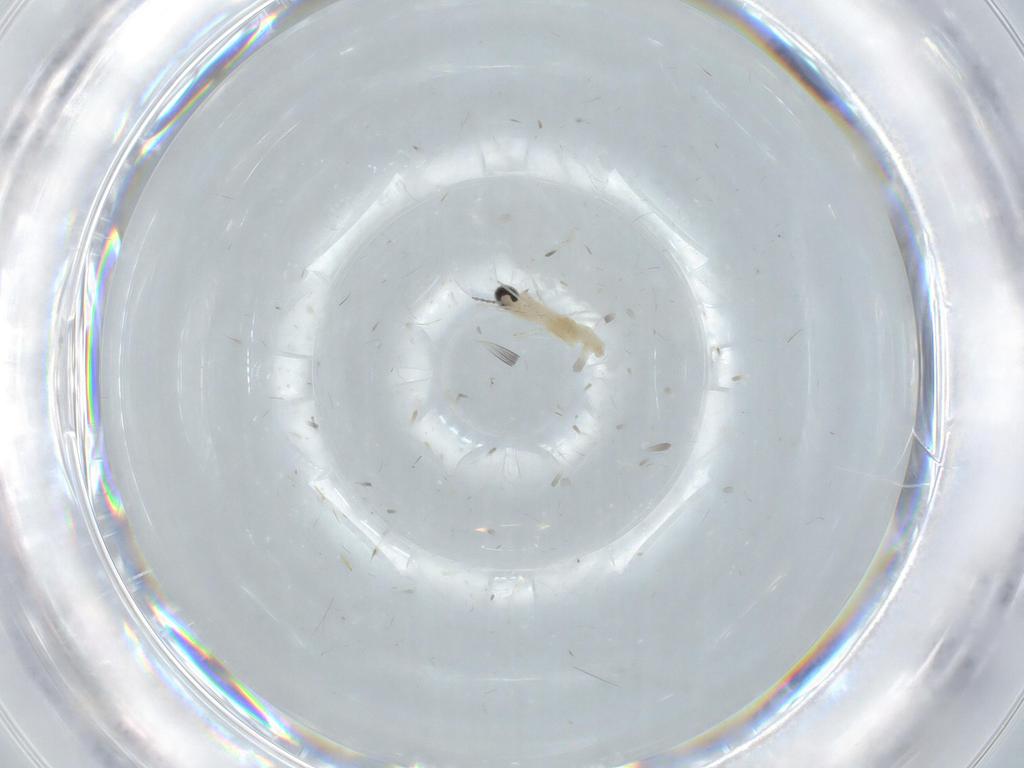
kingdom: Animalia
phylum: Arthropoda
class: Insecta
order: Diptera
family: Cecidomyiidae
